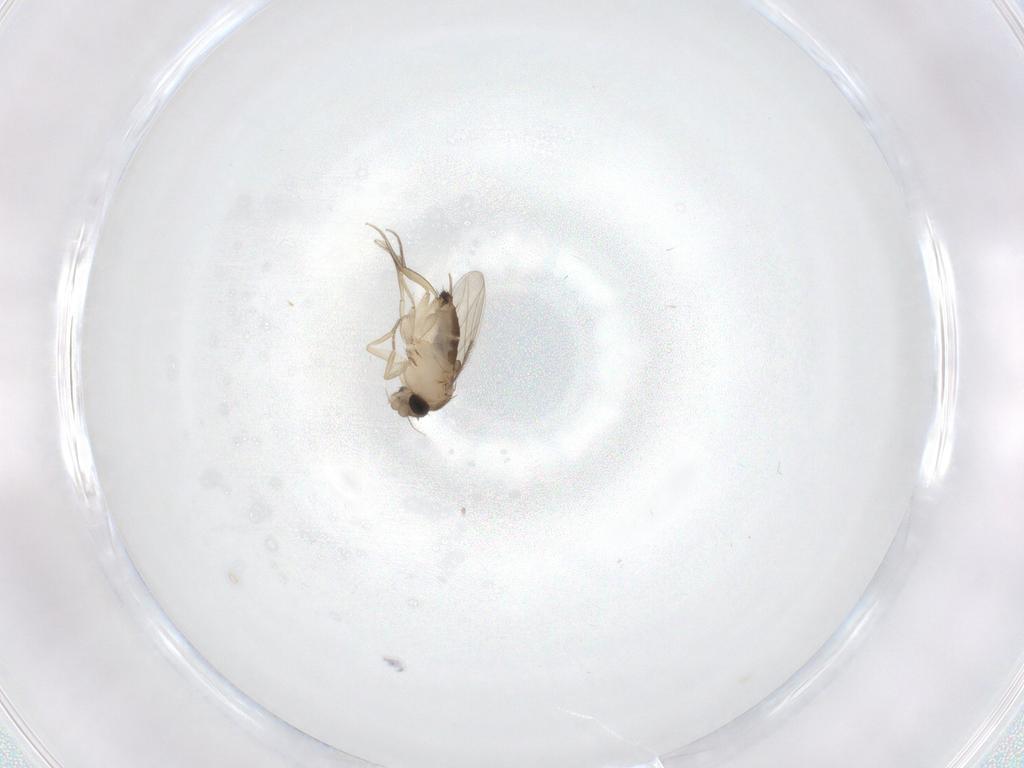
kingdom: Animalia
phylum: Arthropoda
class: Insecta
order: Diptera
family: Phoridae
